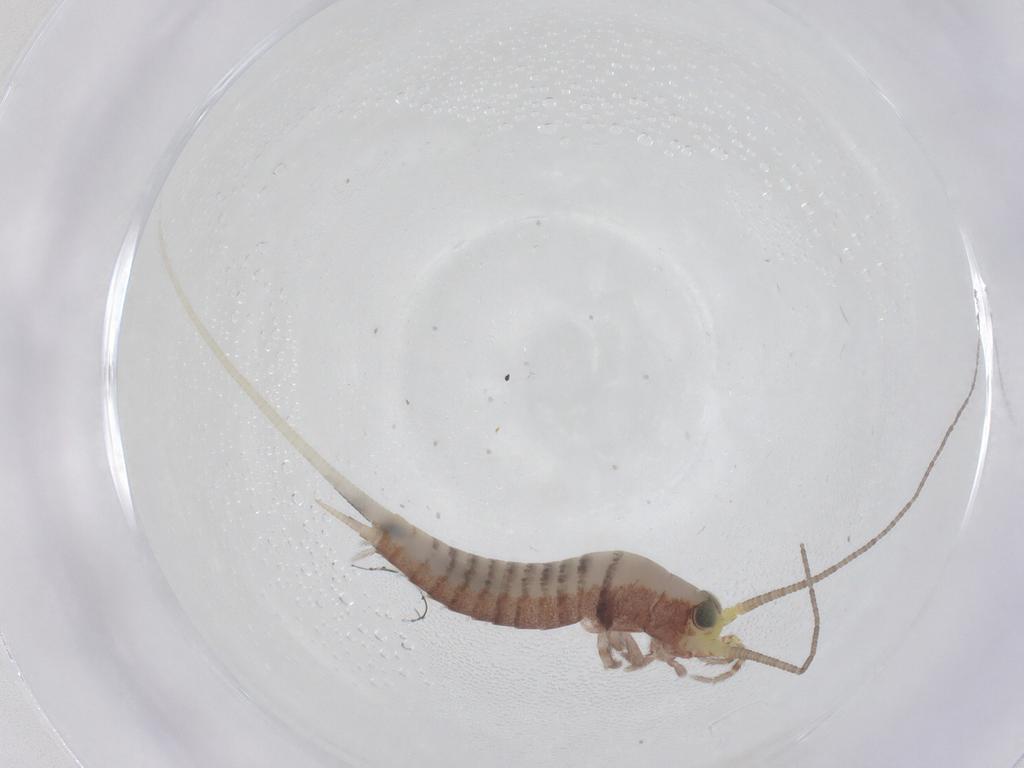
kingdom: Animalia
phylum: Arthropoda
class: Insecta
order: Archaeognatha
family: Machilidae
